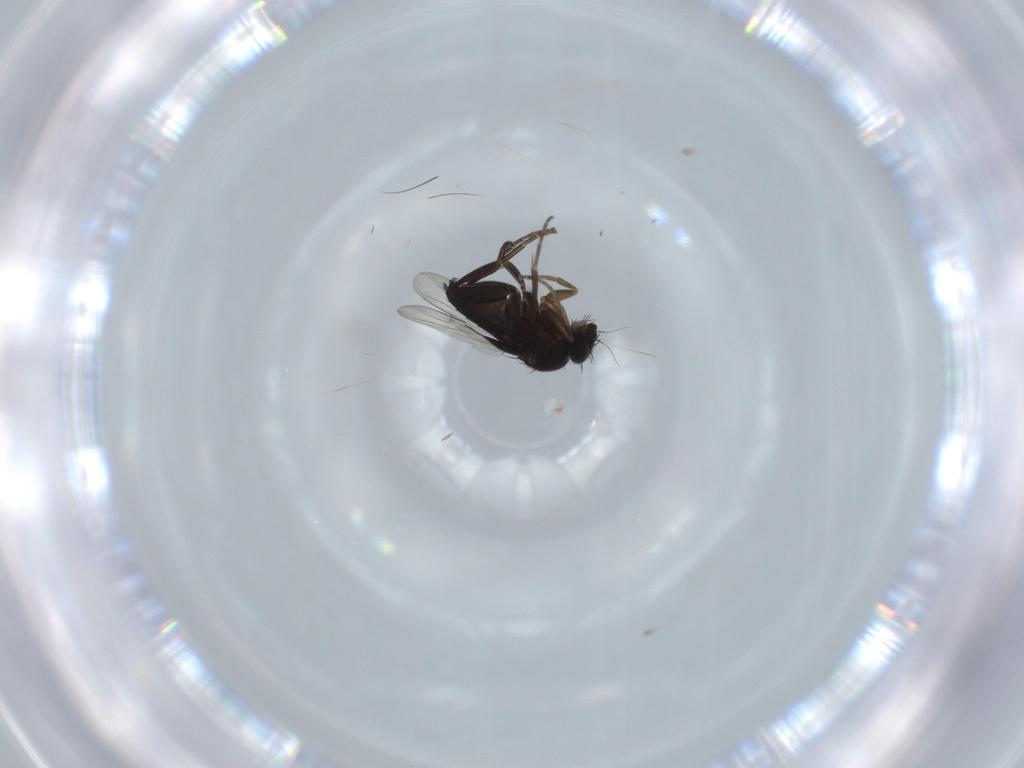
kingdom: Animalia
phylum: Arthropoda
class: Insecta
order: Diptera
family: Phoridae
